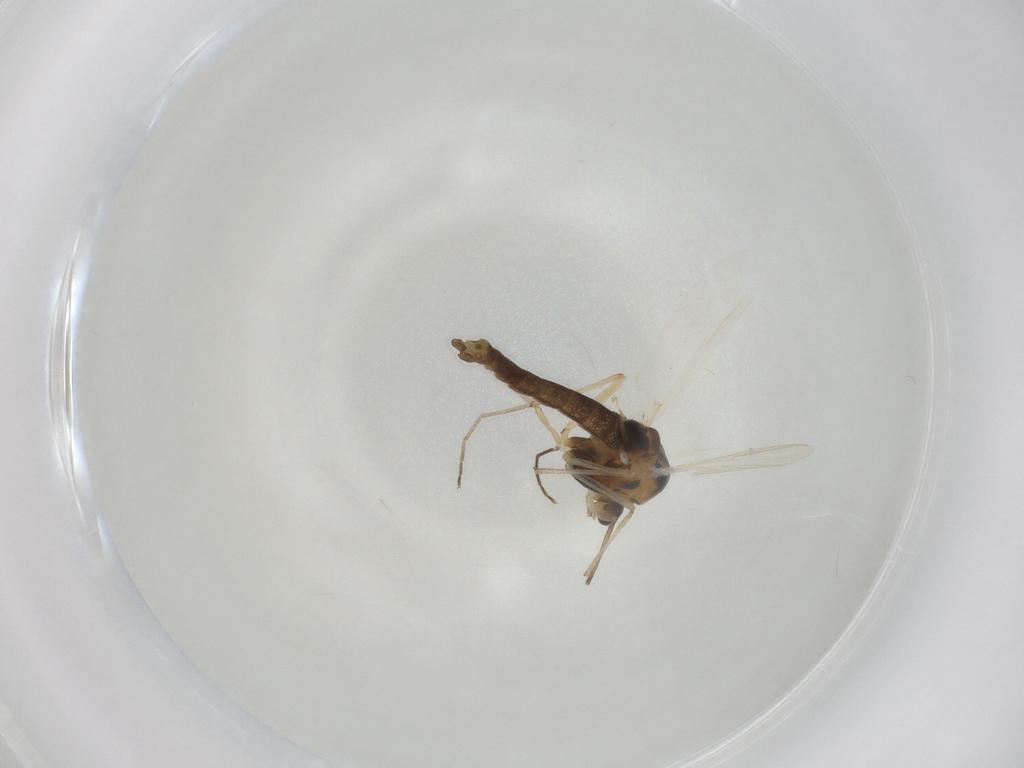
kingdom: Animalia
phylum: Arthropoda
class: Insecta
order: Diptera
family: Chironomidae
